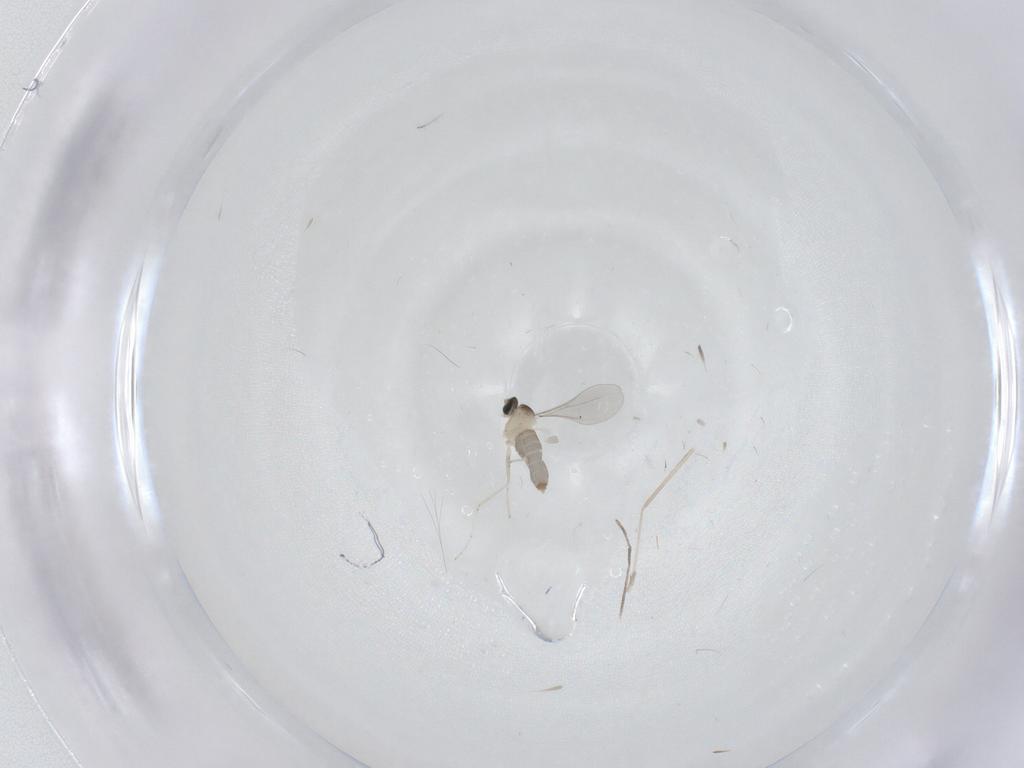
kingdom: Animalia
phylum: Arthropoda
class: Insecta
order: Diptera
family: Cecidomyiidae
